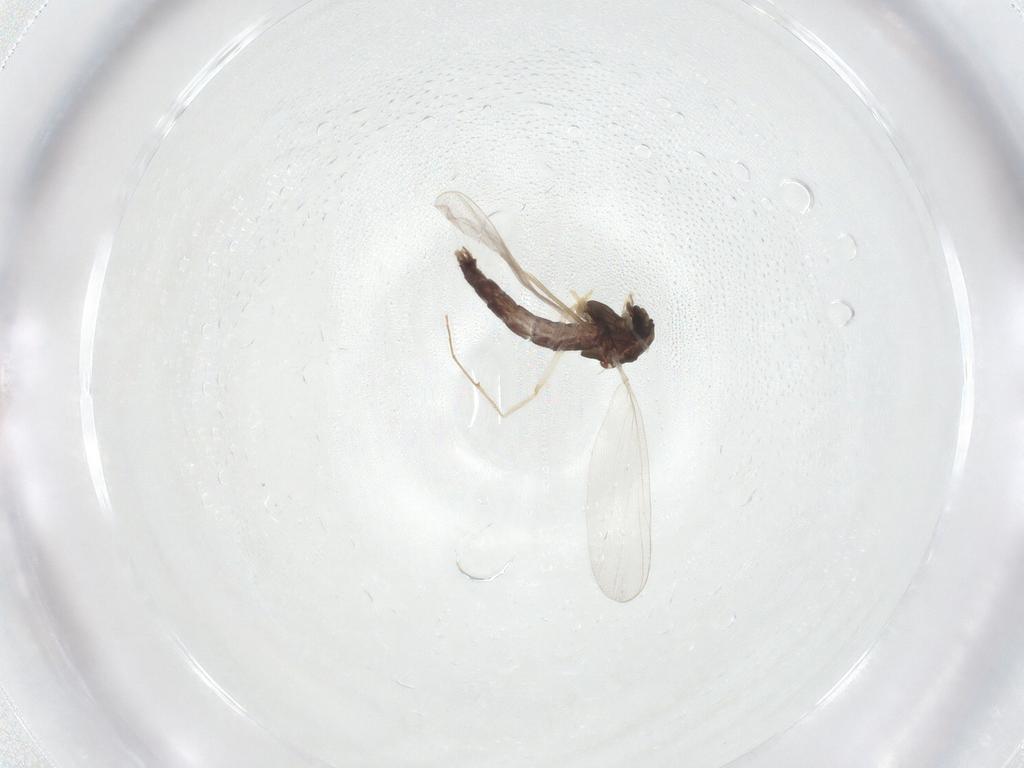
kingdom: Animalia
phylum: Arthropoda
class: Insecta
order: Diptera
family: Chironomidae
